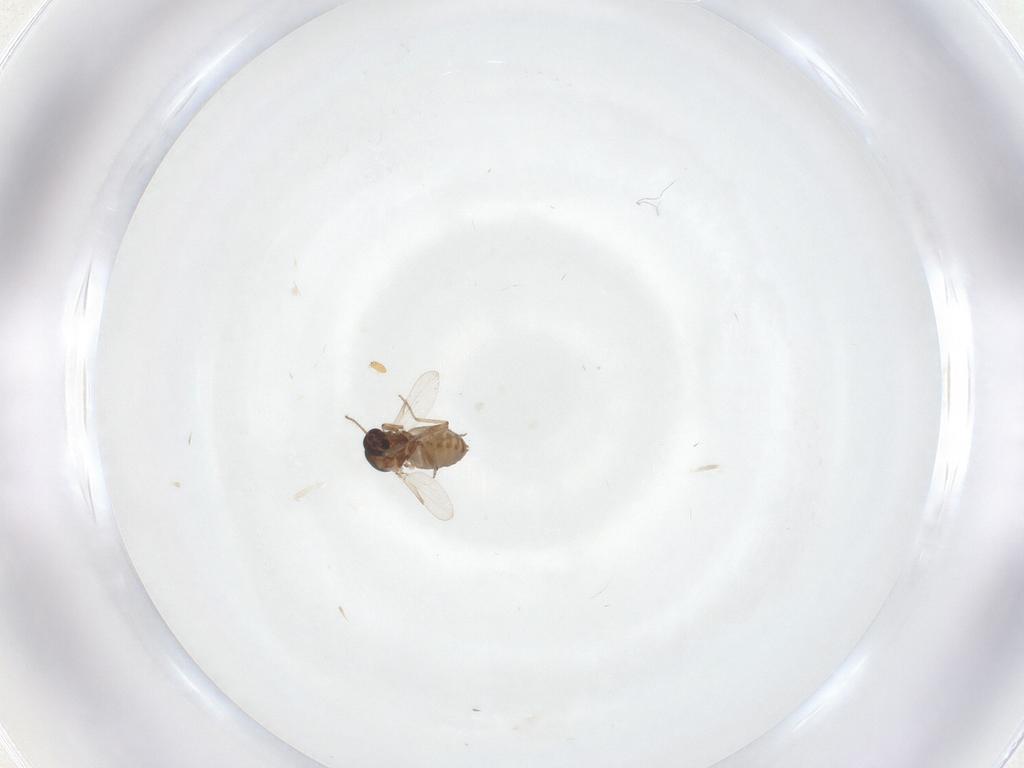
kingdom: Animalia
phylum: Arthropoda
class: Insecta
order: Diptera
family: Ceratopogonidae
